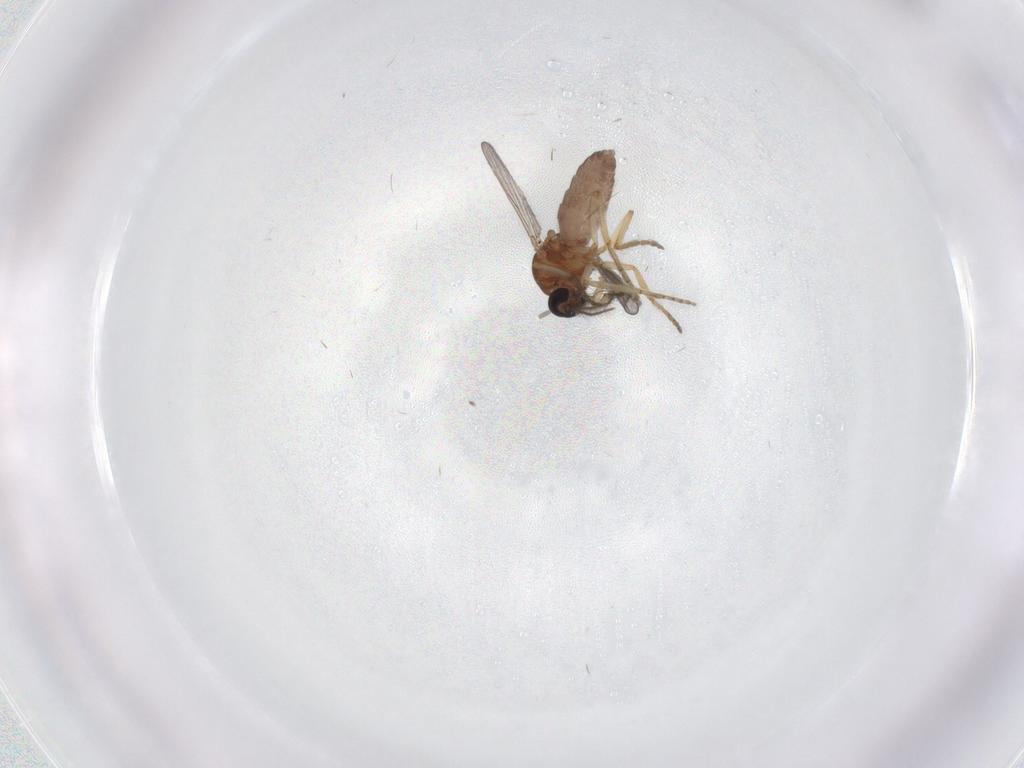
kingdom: Animalia
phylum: Arthropoda
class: Insecta
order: Diptera
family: Ceratopogonidae
